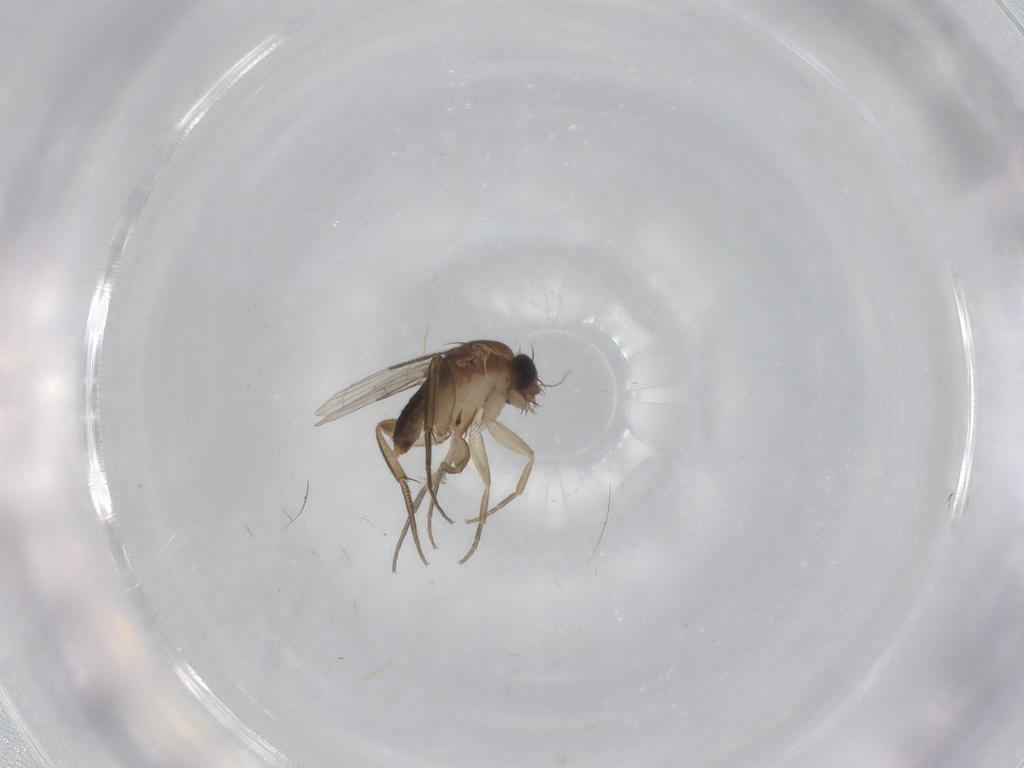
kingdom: Animalia
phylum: Arthropoda
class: Insecta
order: Diptera
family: Phoridae
